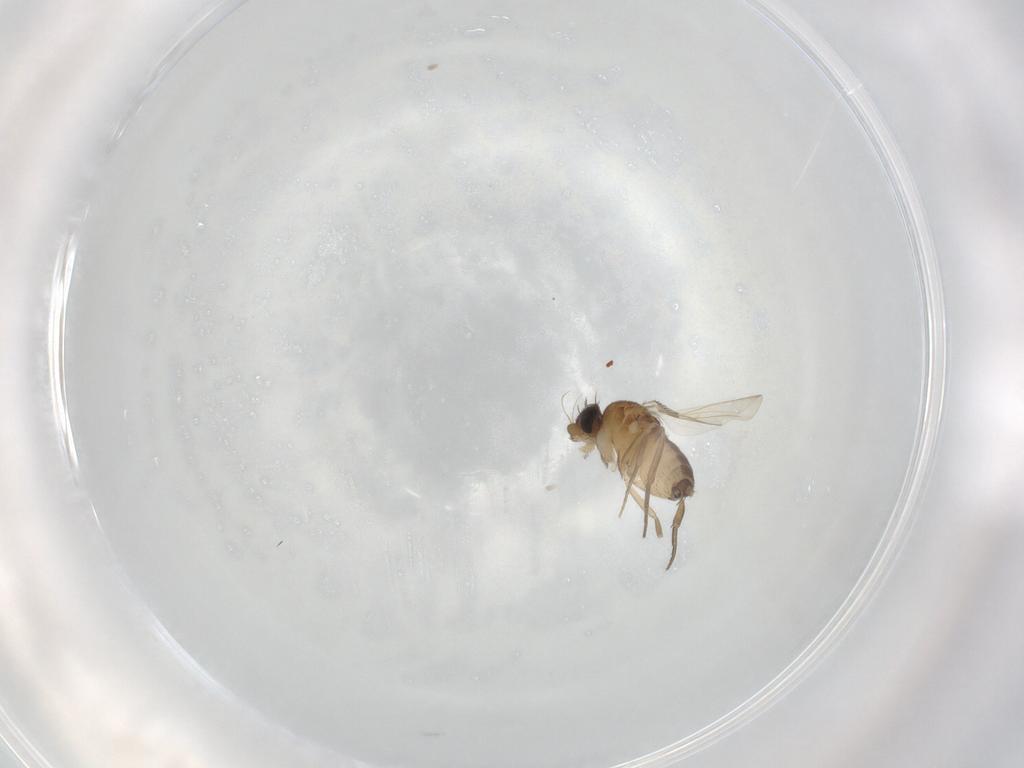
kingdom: Animalia
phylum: Arthropoda
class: Insecta
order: Diptera
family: Phoridae
